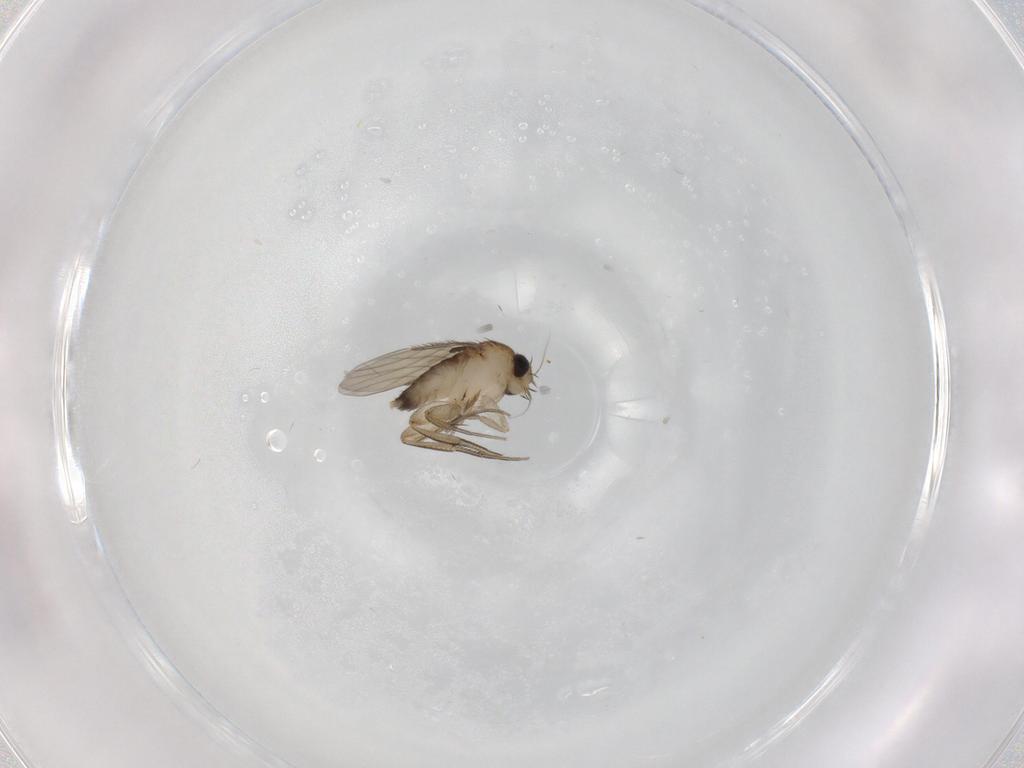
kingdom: Animalia
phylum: Arthropoda
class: Insecta
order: Diptera
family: Phoridae
